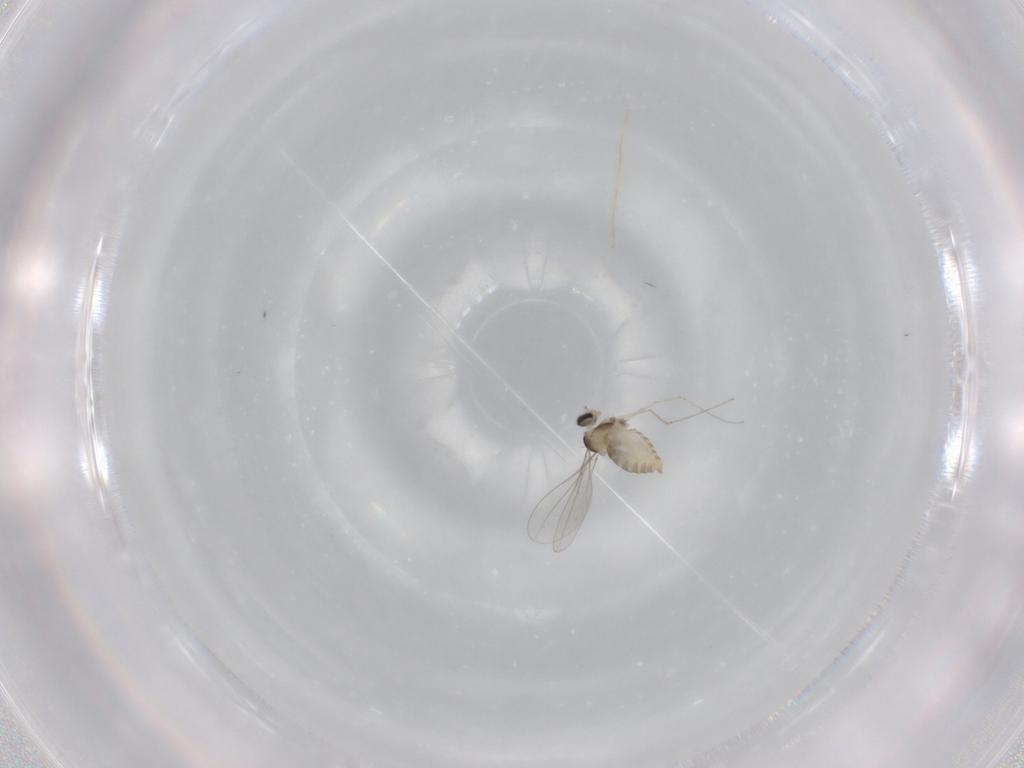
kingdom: Animalia
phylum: Arthropoda
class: Insecta
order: Diptera
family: Cecidomyiidae
